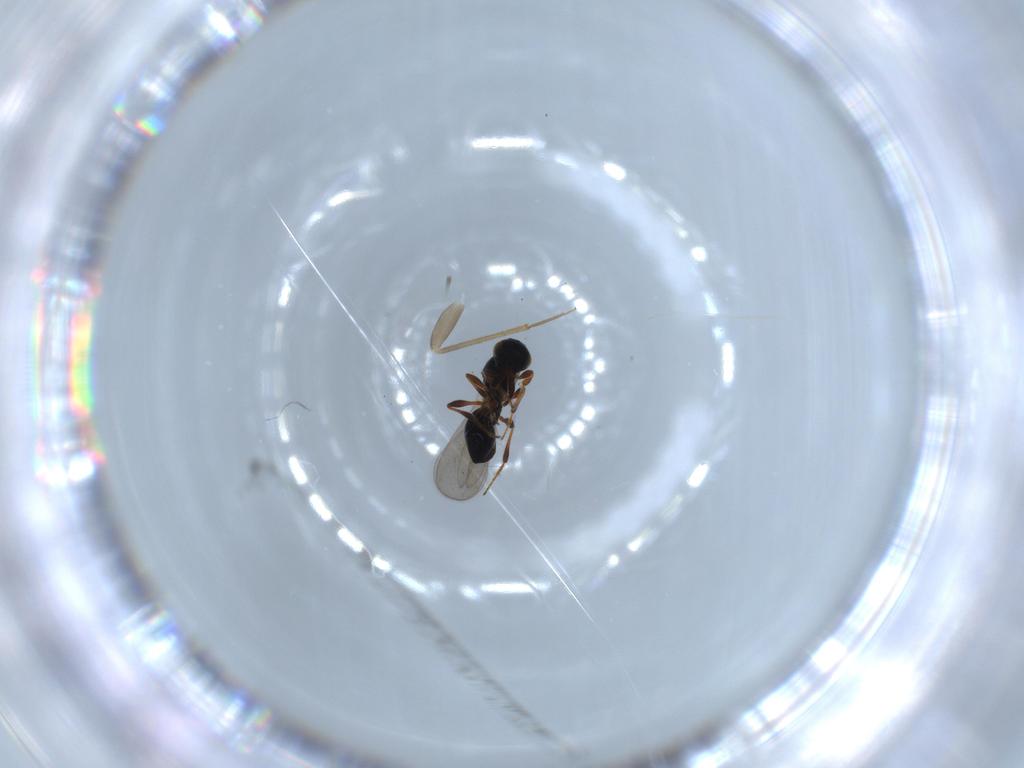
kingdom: Animalia
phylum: Arthropoda
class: Insecta
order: Hymenoptera
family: Platygastridae
